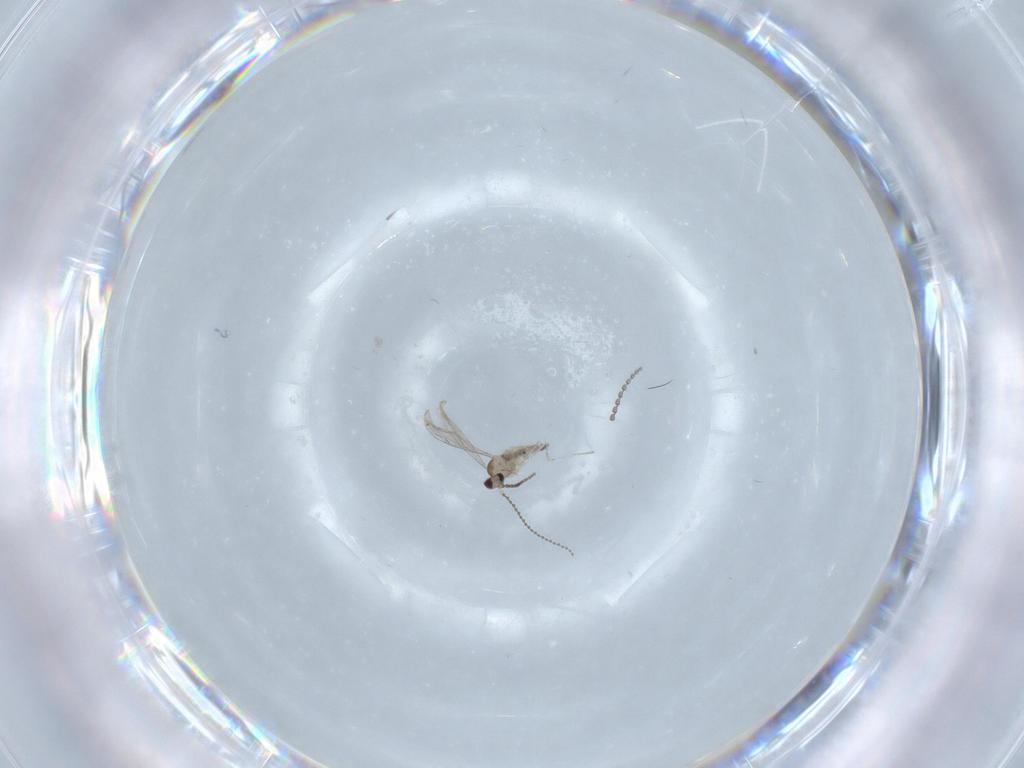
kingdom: Animalia
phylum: Arthropoda
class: Insecta
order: Diptera
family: Cecidomyiidae
